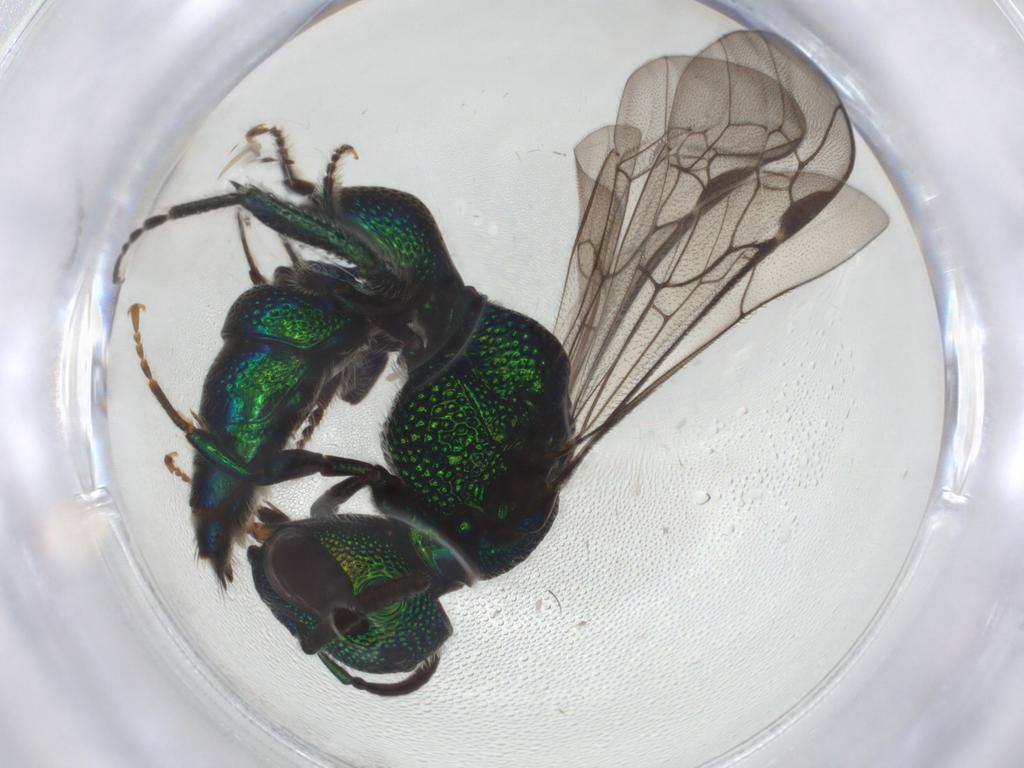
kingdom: Animalia
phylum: Arthropoda
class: Insecta
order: Hymenoptera
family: Halictidae
